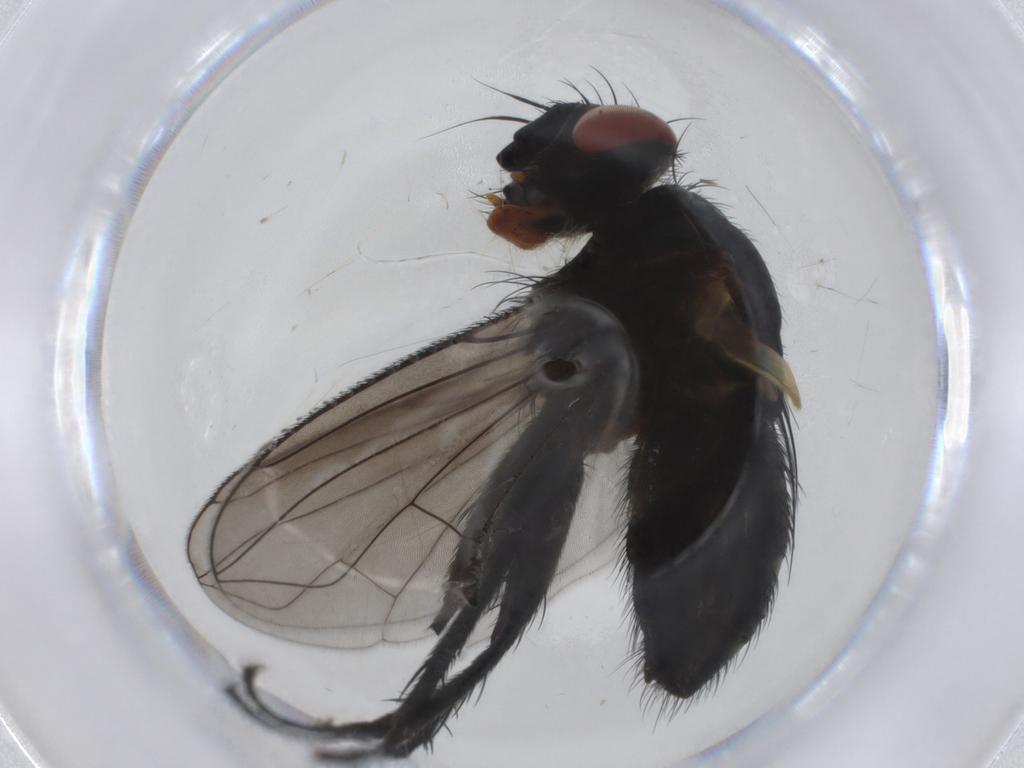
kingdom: Animalia
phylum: Arthropoda
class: Insecta
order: Diptera
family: Tachinidae
